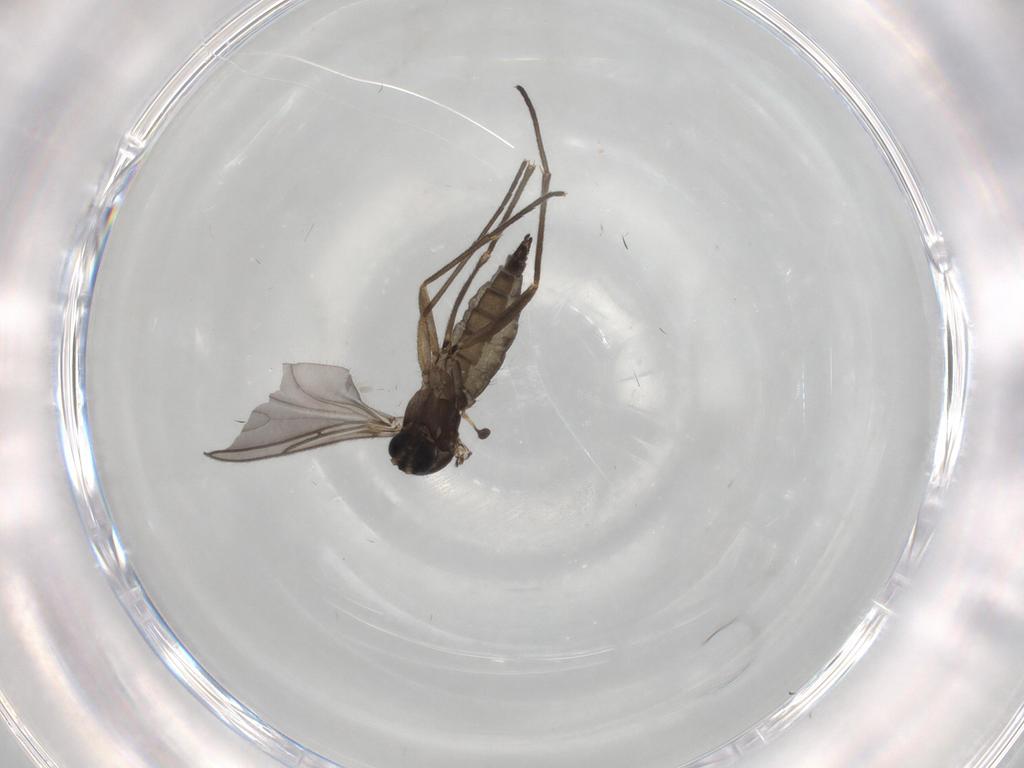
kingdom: Animalia
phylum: Arthropoda
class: Insecta
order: Diptera
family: Sciaridae
